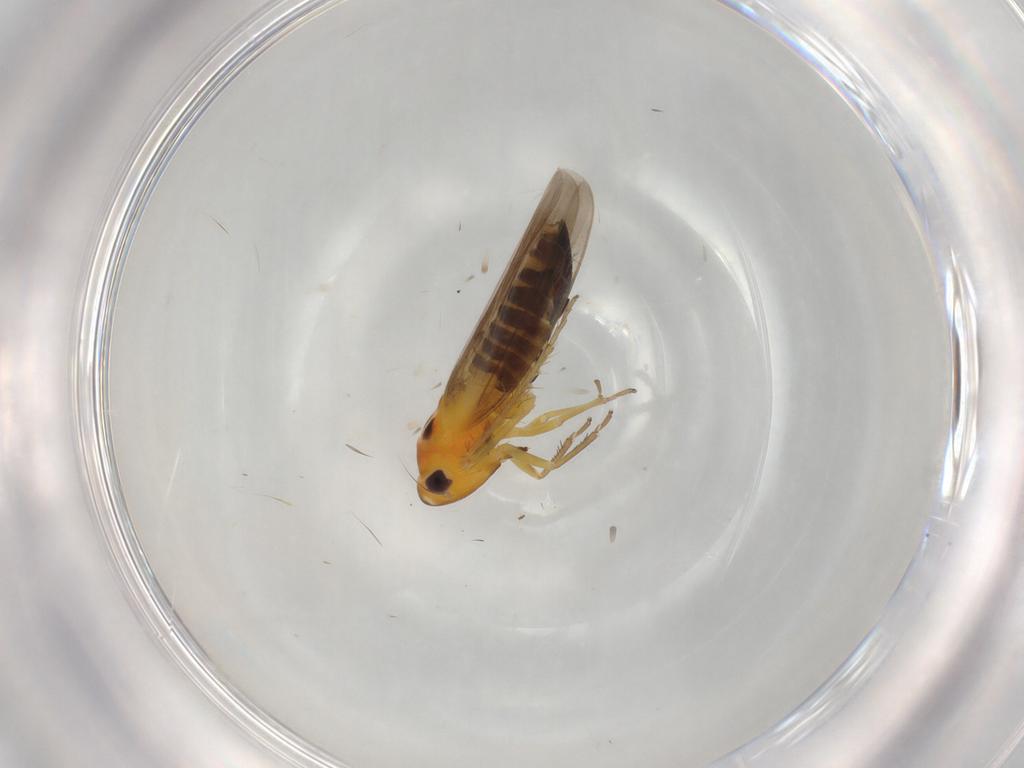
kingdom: Animalia
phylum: Arthropoda
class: Insecta
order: Hemiptera
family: Cicadellidae
